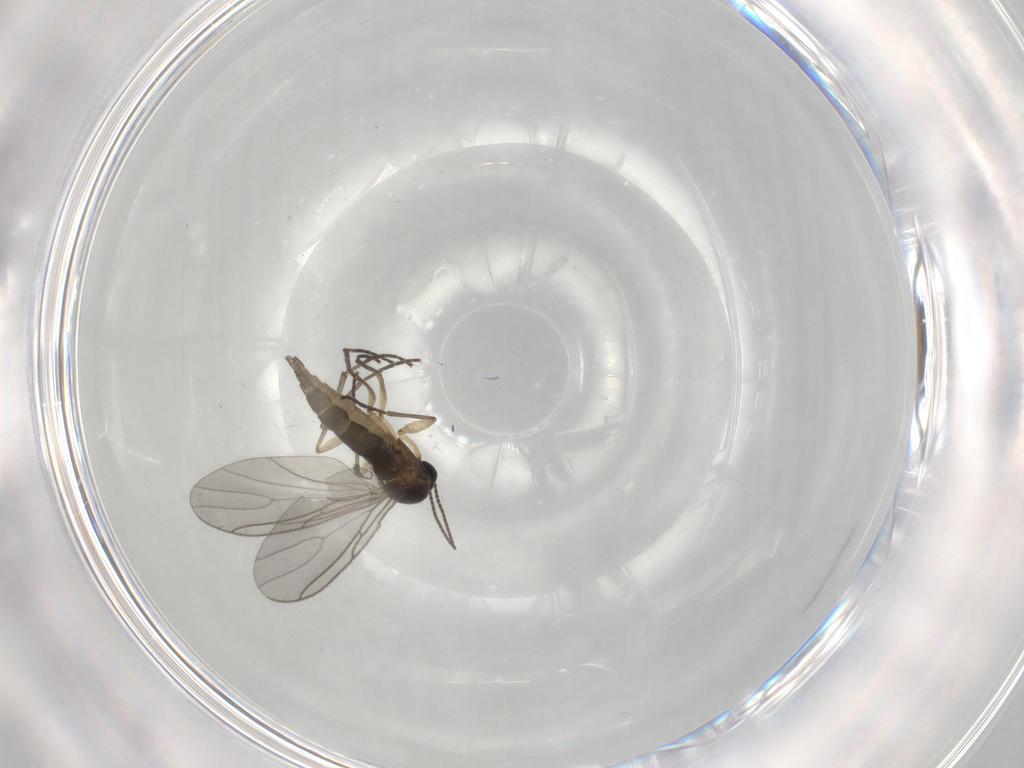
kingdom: Animalia
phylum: Arthropoda
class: Insecta
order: Diptera
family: Sciaridae
